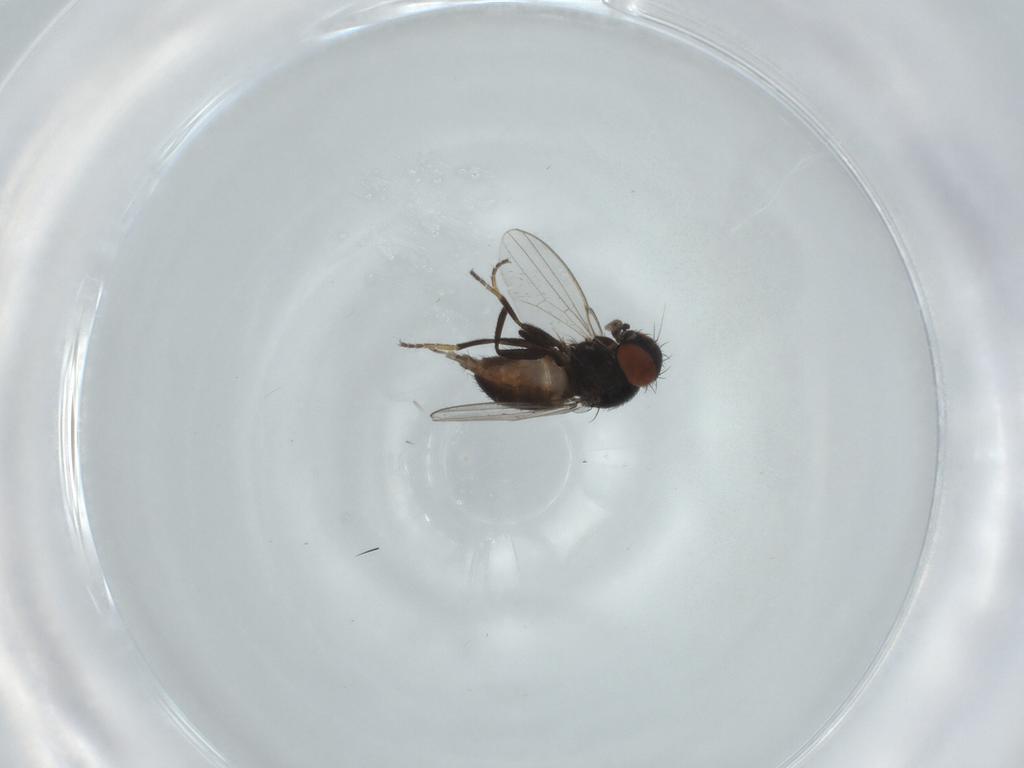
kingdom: Animalia
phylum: Arthropoda
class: Insecta
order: Diptera
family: Milichiidae
